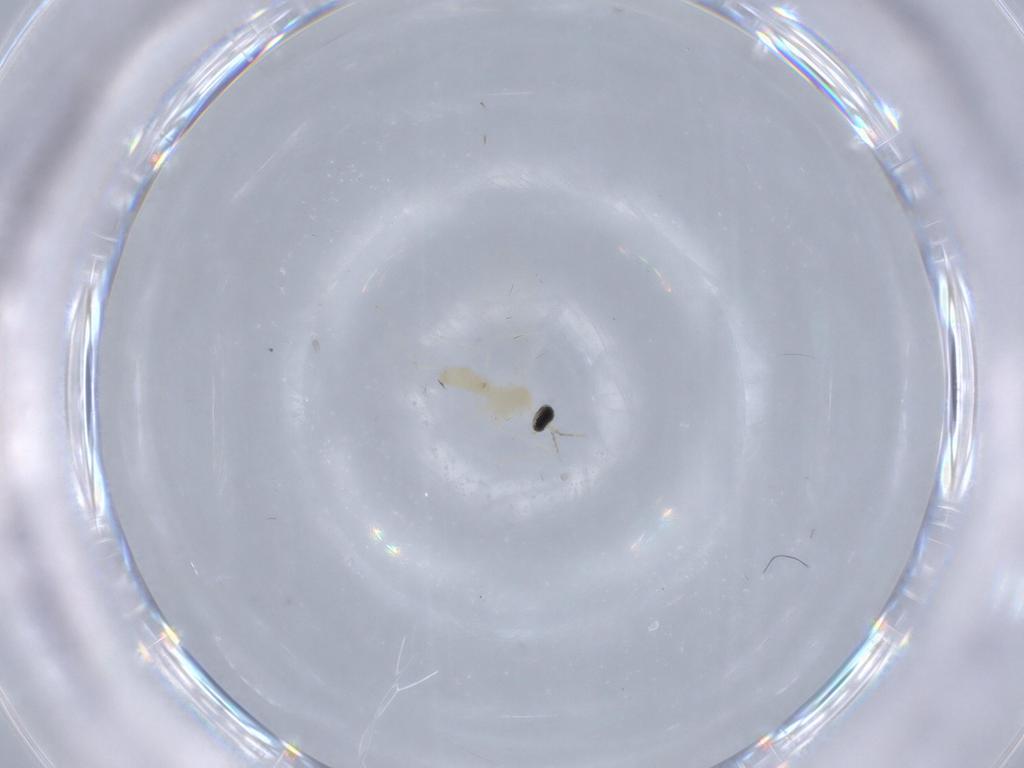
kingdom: Animalia
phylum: Arthropoda
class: Insecta
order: Diptera
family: Cecidomyiidae
